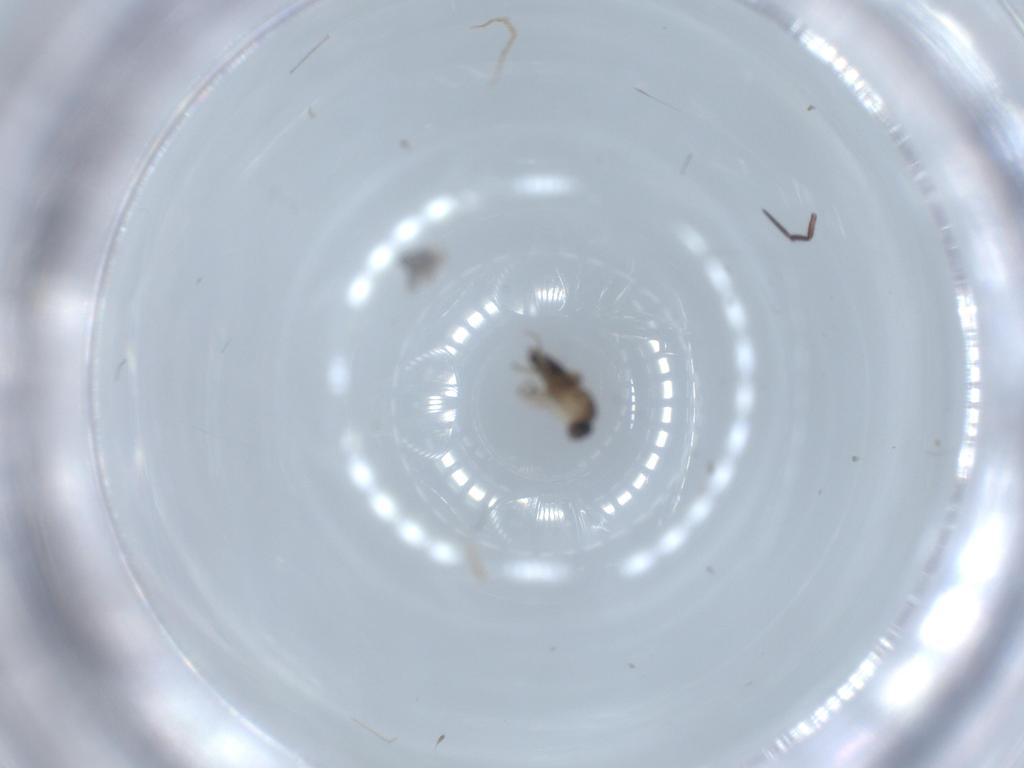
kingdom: Animalia
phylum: Arthropoda
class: Insecta
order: Diptera
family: Phoridae
